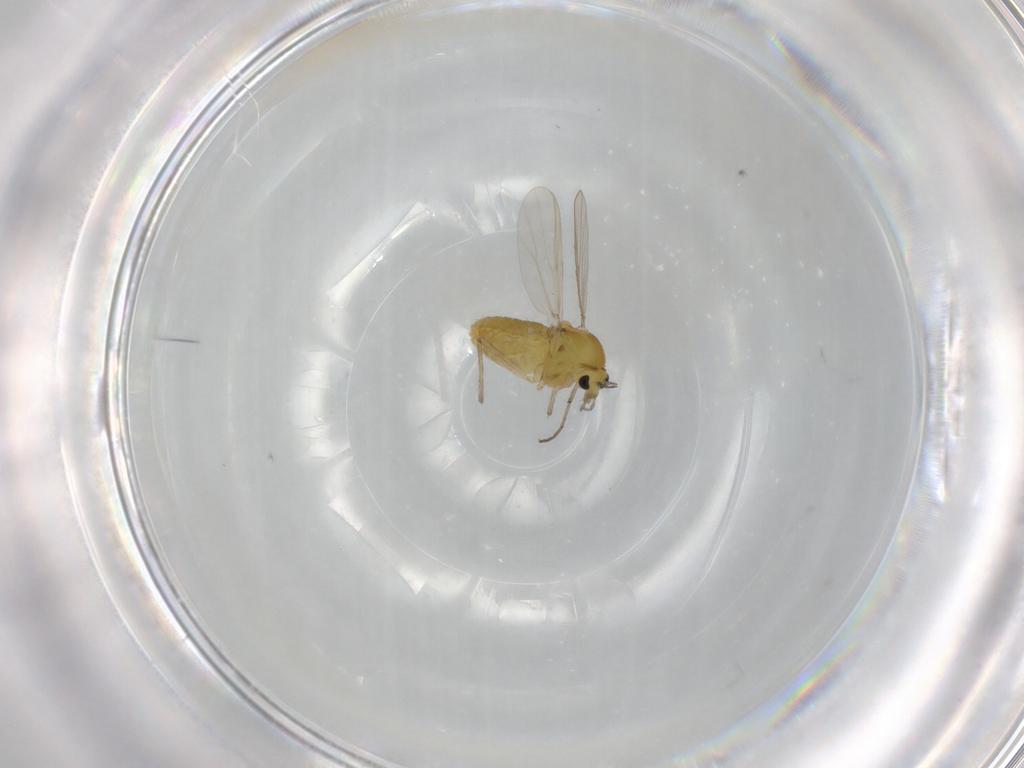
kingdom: Animalia
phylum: Arthropoda
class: Insecta
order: Diptera
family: Chironomidae
